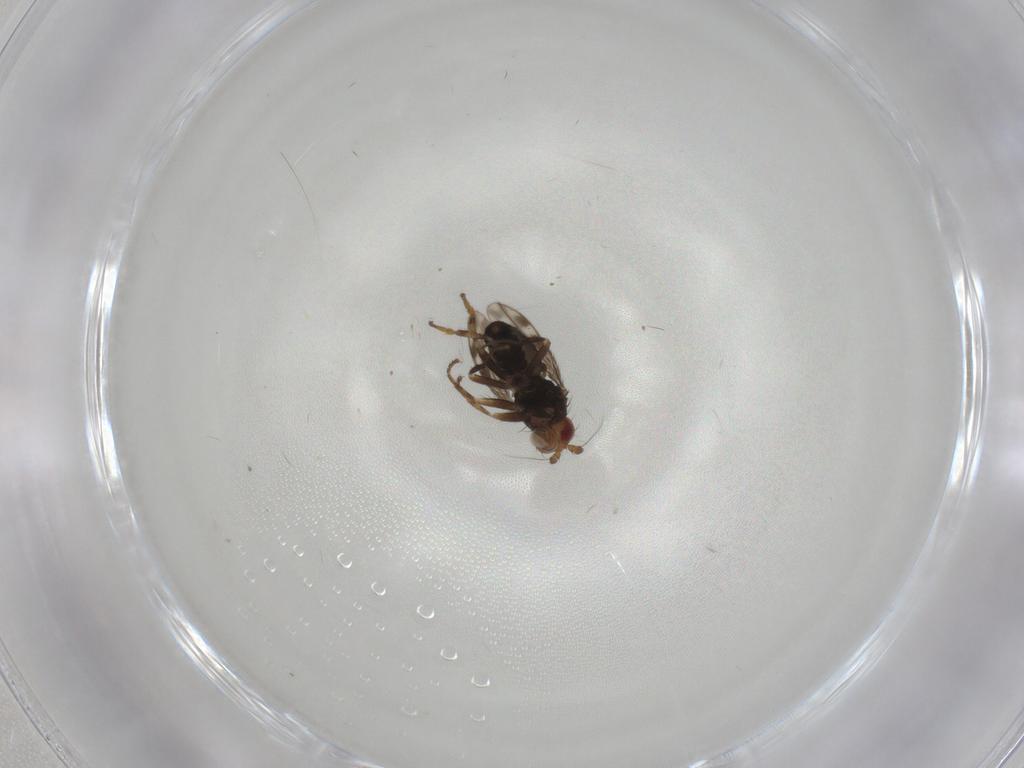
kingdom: Animalia
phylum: Arthropoda
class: Insecta
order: Diptera
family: Sphaeroceridae
